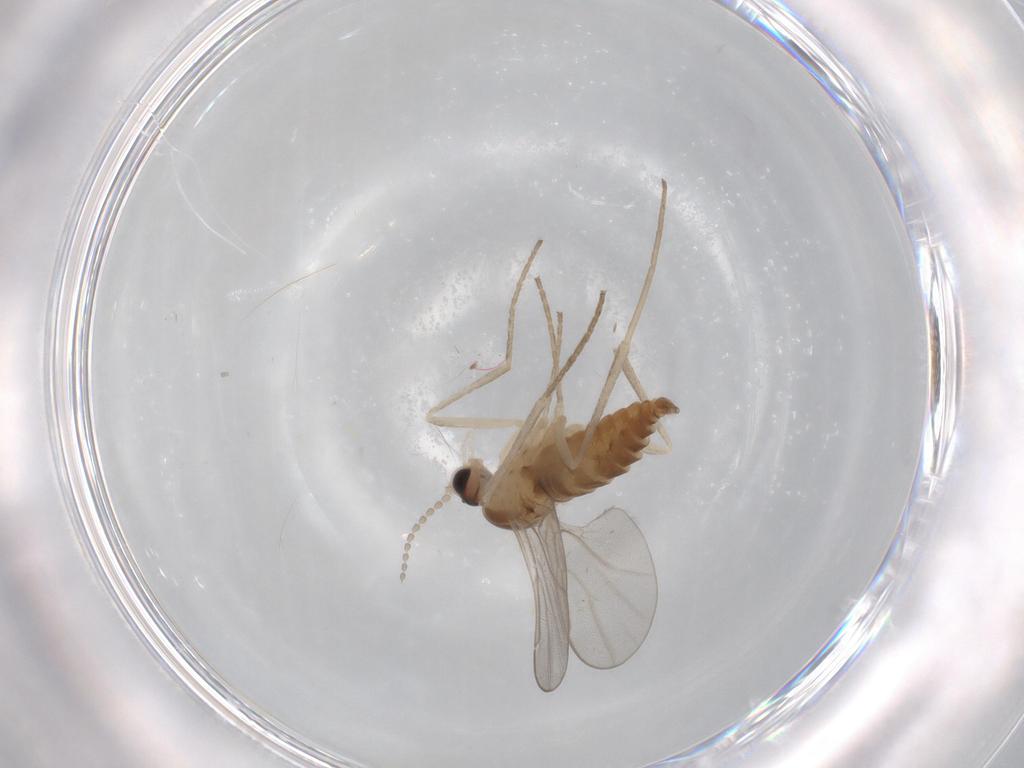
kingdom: Animalia
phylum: Arthropoda
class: Insecta
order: Diptera
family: Cecidomyiidae
